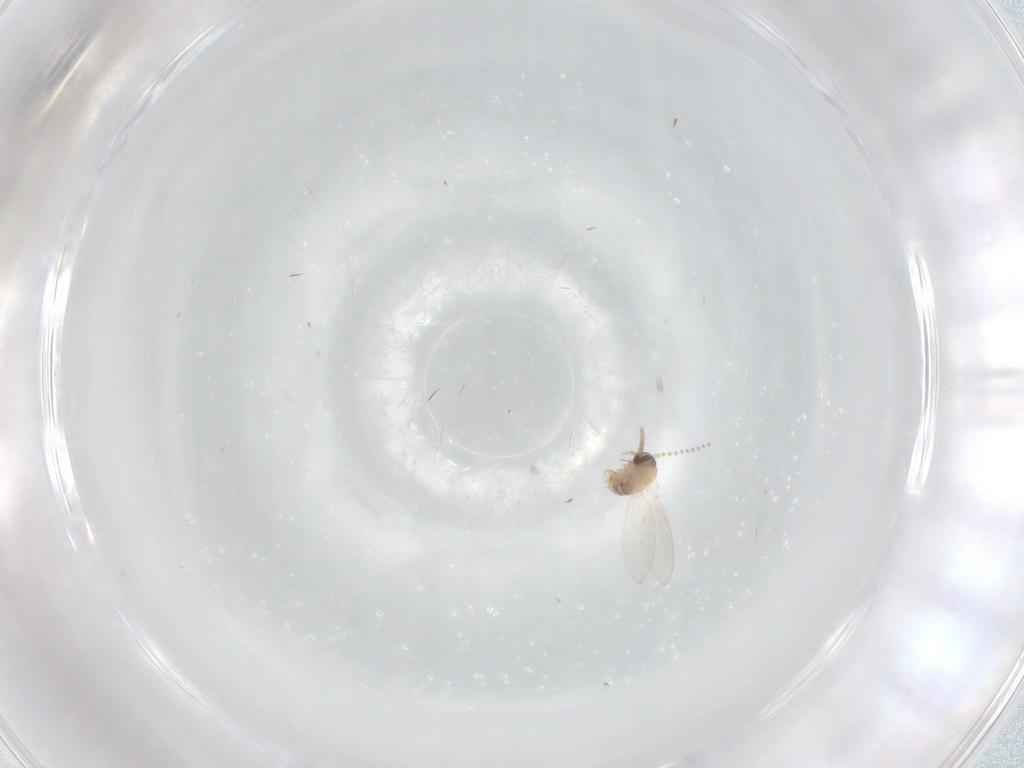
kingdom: Animalia
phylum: Arthropoda
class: Insecta
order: Diptera
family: Psychodidae
